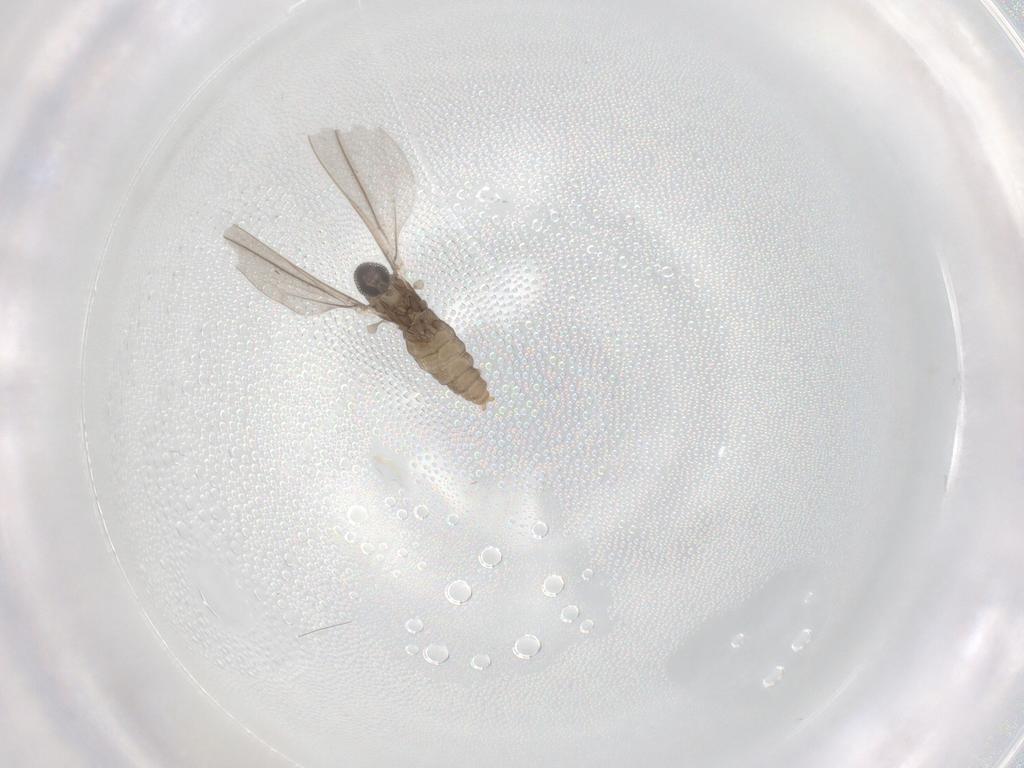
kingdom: Animalia
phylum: Arthropoda
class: Insecta
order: Diptera
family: Cecidomyiidae
